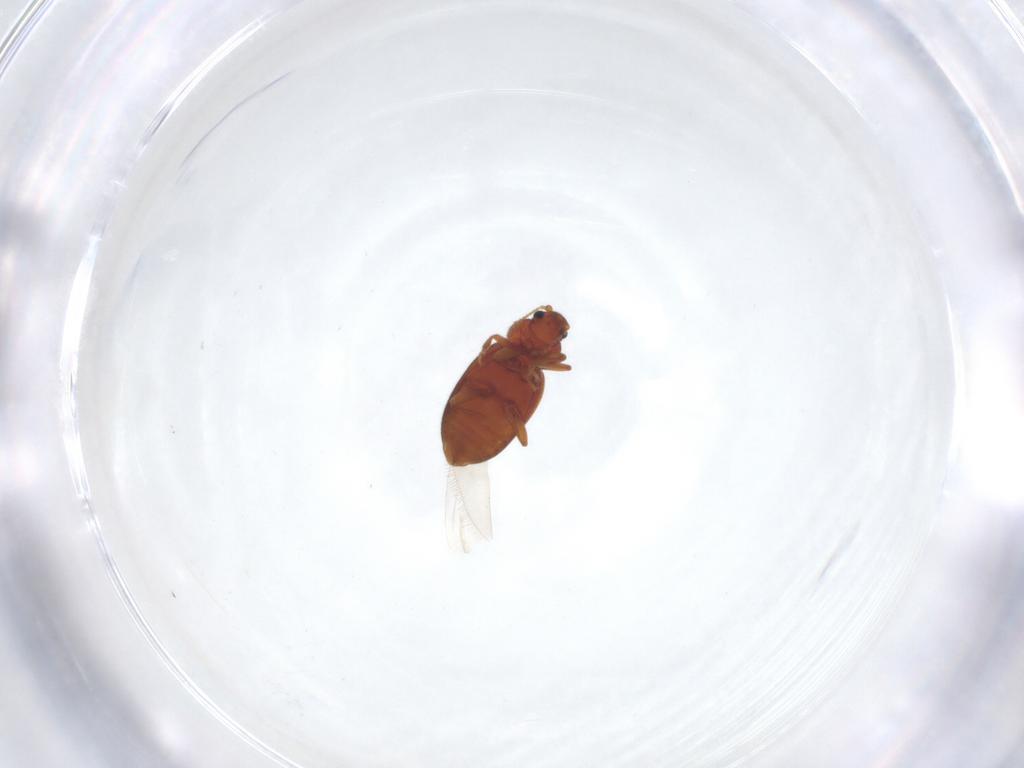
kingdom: Animalia
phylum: Arthropoda
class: Insecta
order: Coleoptera
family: Latridiidae
